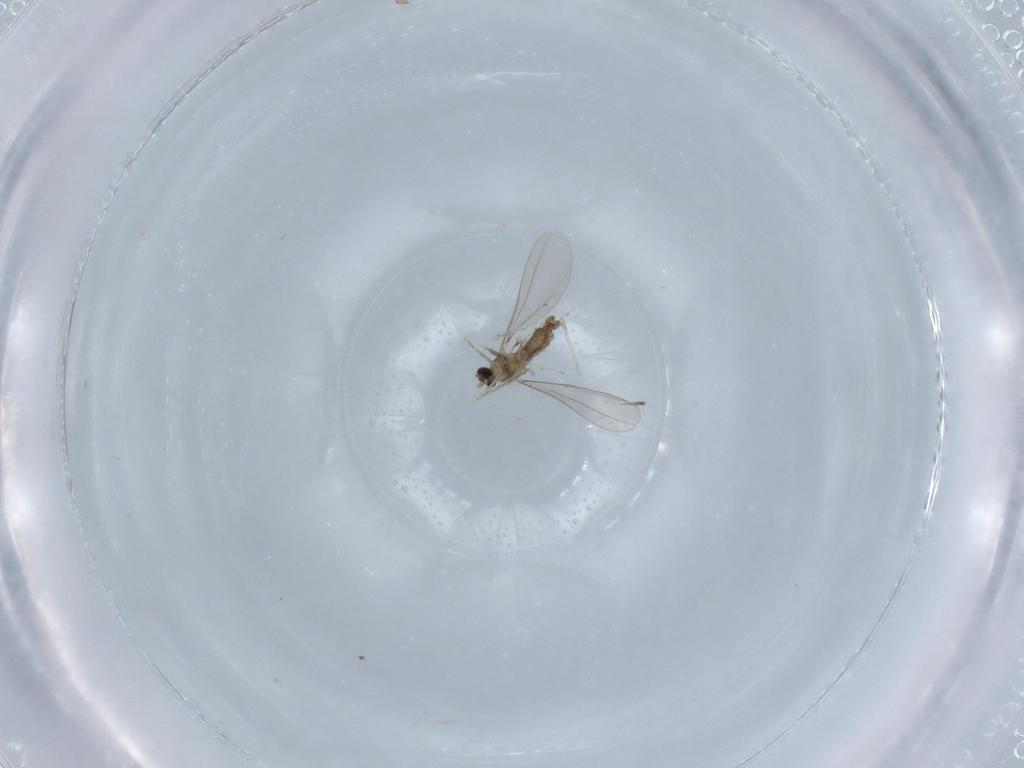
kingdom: Animalia
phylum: Arthropoda
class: Insecta
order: Diptera
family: Cecidomyiidae
